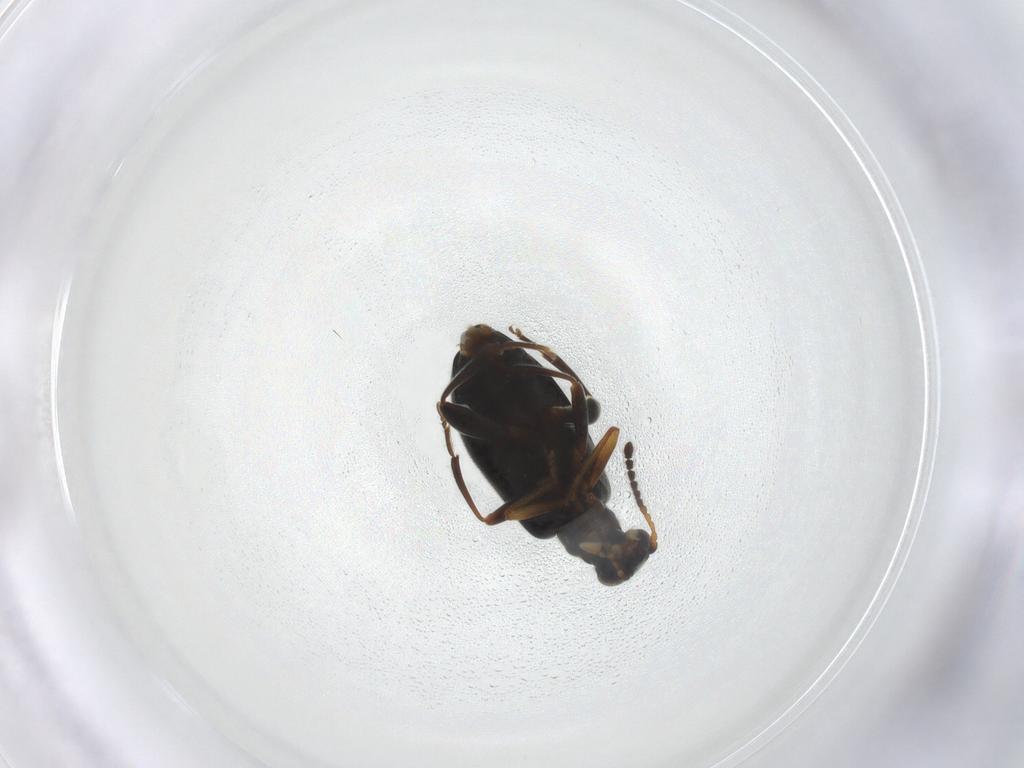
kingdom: Animalia
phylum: Arthropoda
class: Insecta
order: Coleoptera
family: Aderidae
